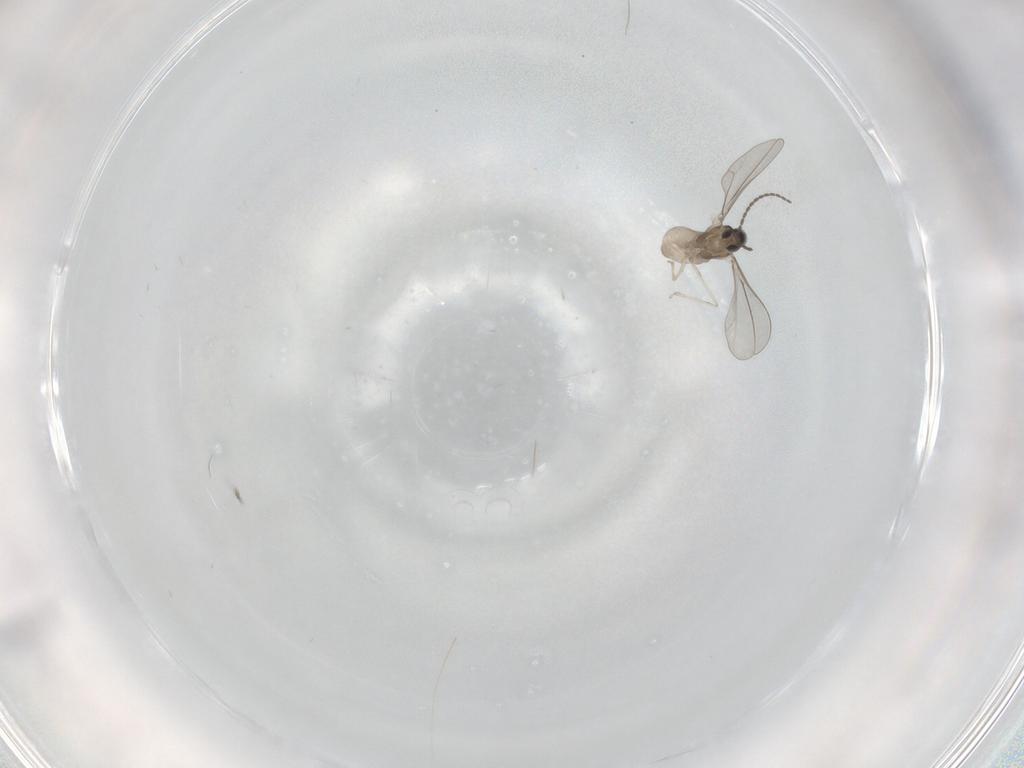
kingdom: Animalia
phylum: Arthropoda
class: Insecta
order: Diptera
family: Cecidomyiidae
